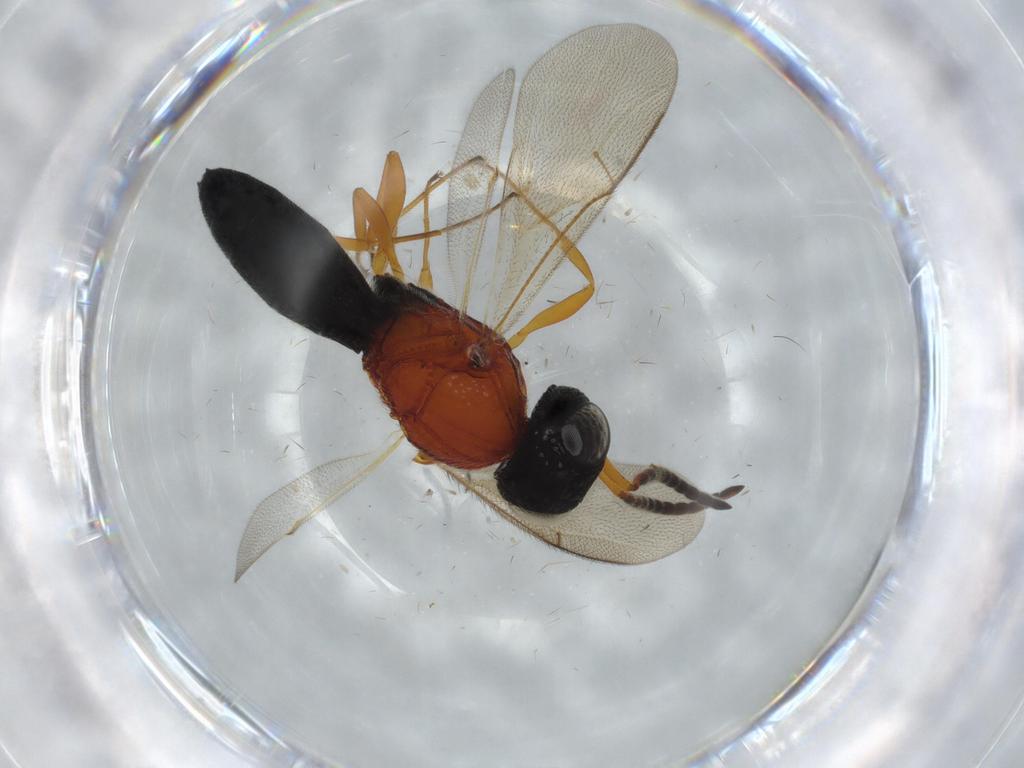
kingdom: Animalia
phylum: Arthropoda
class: Insecta
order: Hymenoptera
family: Scelionidae
